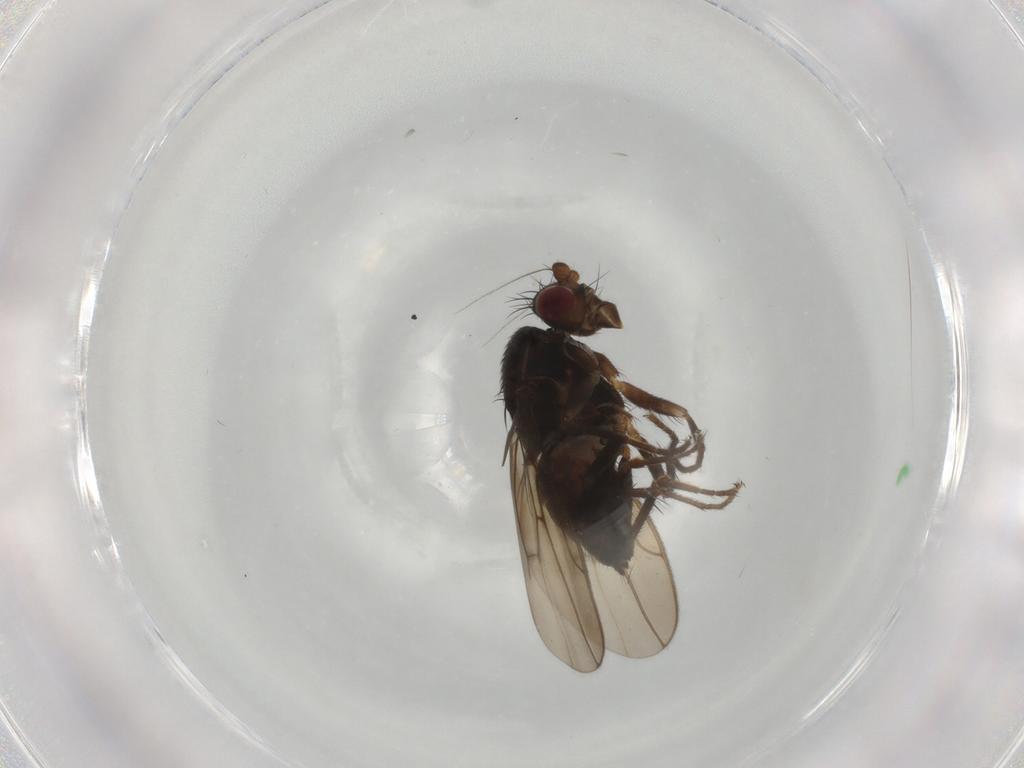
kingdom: Animalia
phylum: Arthropoda
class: Insecta
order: Diptera
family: Sphaeroceridae
